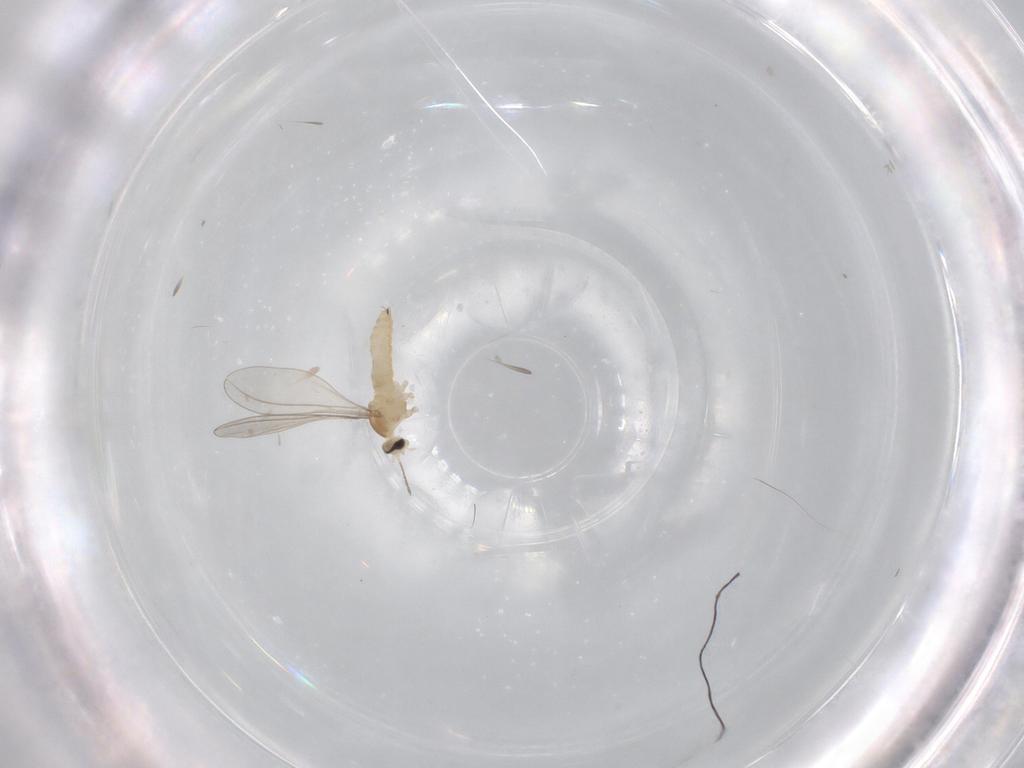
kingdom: Animalia
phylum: Arthropoda
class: Insecta
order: Diptera
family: Cecidomyiidae
